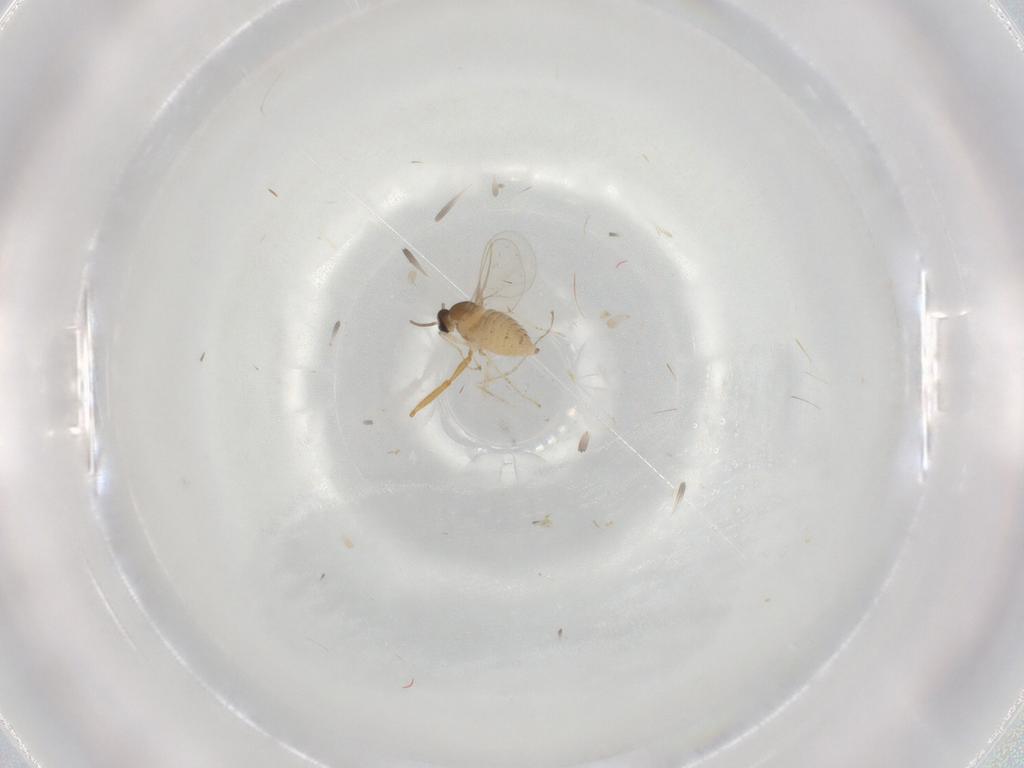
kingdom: Animalia
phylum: Arthropoda
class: Insecta
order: Diptera
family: Cecidomyiidae
